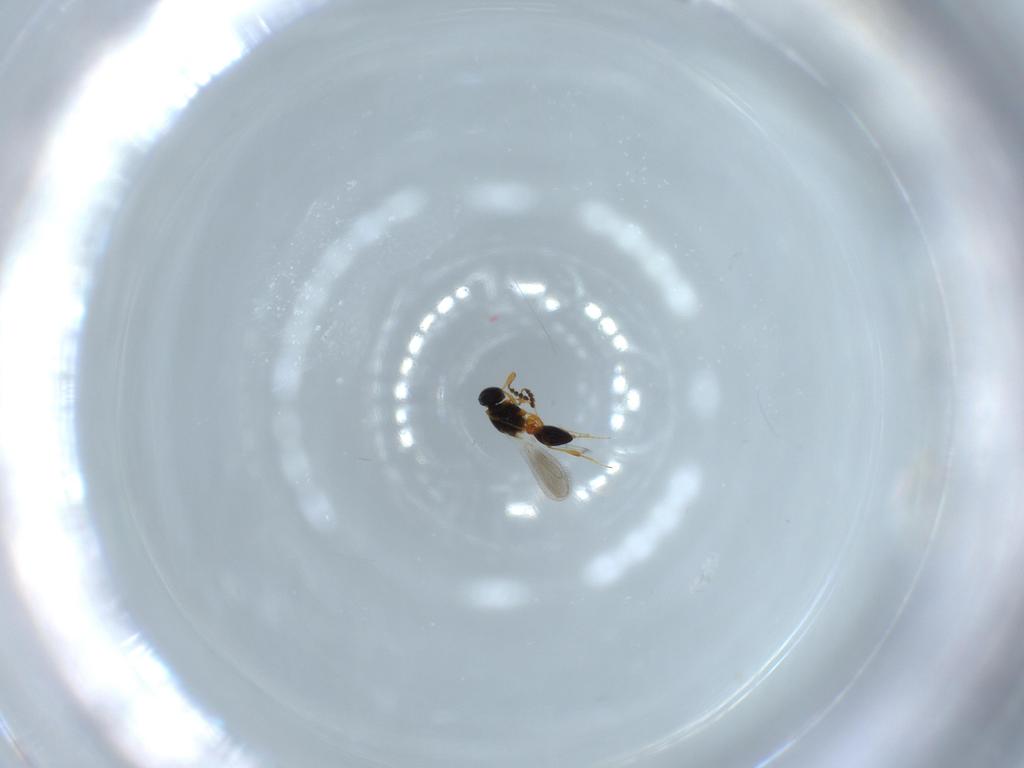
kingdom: Animalia
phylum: Arthropoda
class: Insecta
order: Hymenoptera
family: Platygastridae
